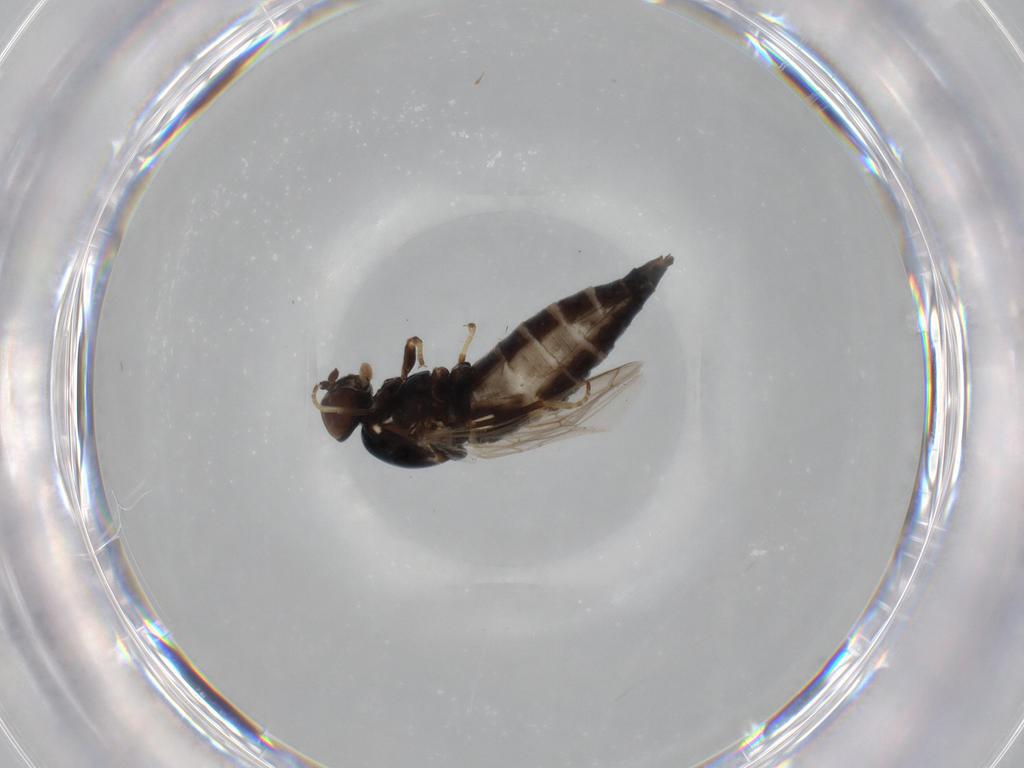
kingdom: Animalia
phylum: Arthropoda
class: Insecta
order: Diptera
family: Scenopinidae
